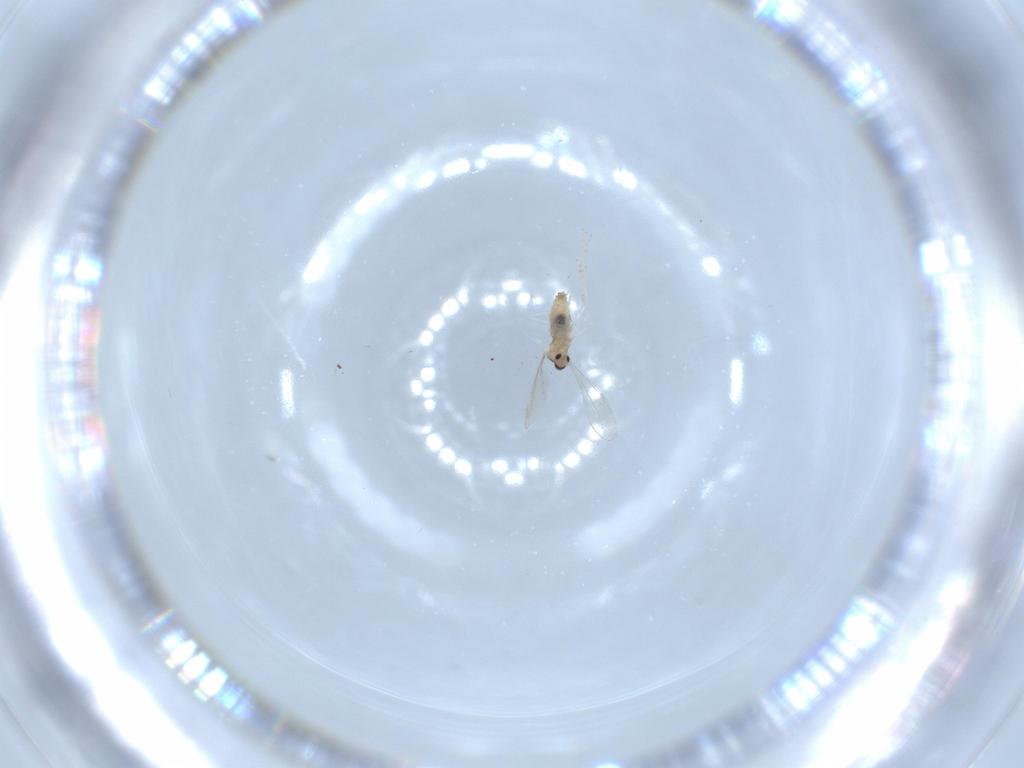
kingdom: Animalia
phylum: Arthropoda
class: Insecta
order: Diptera
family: Cecidomyiidae
